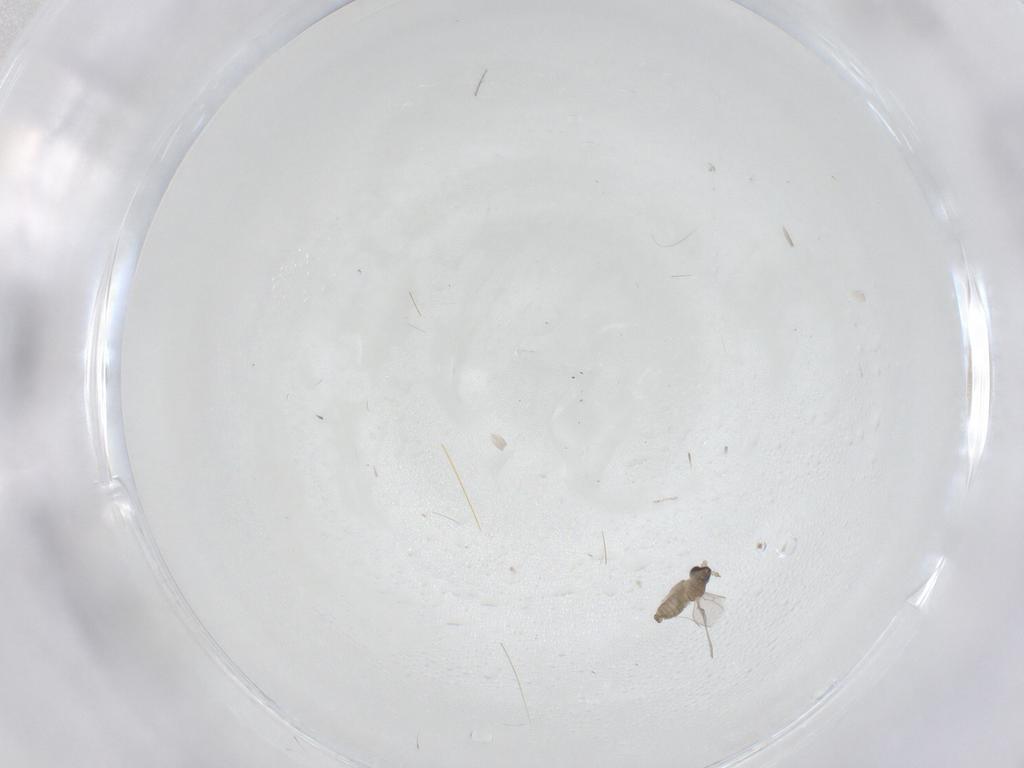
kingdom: Animalia
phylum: Arthropoda
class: Insecta
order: Diptera
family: Cecidomyiidae
